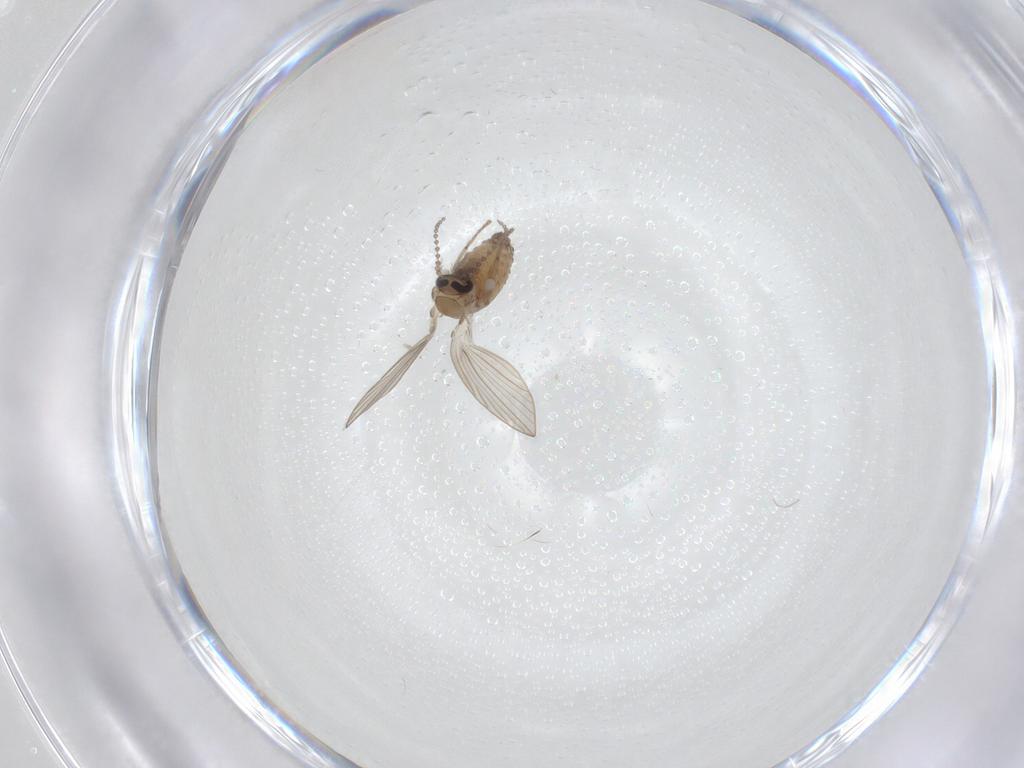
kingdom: Animalia
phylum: Arthropoda
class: Insecta
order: Diptera
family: Psychodidae
